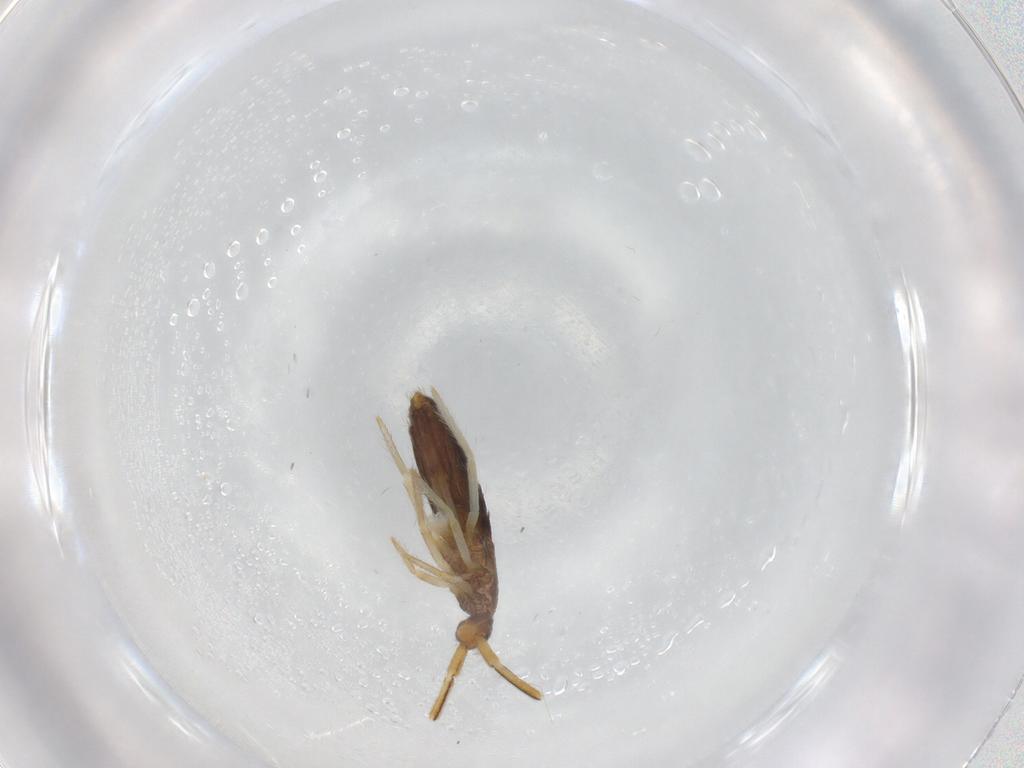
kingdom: Animalia
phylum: Arthropoda
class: Collembola
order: Entomobryomorpha
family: Entomobryidae
